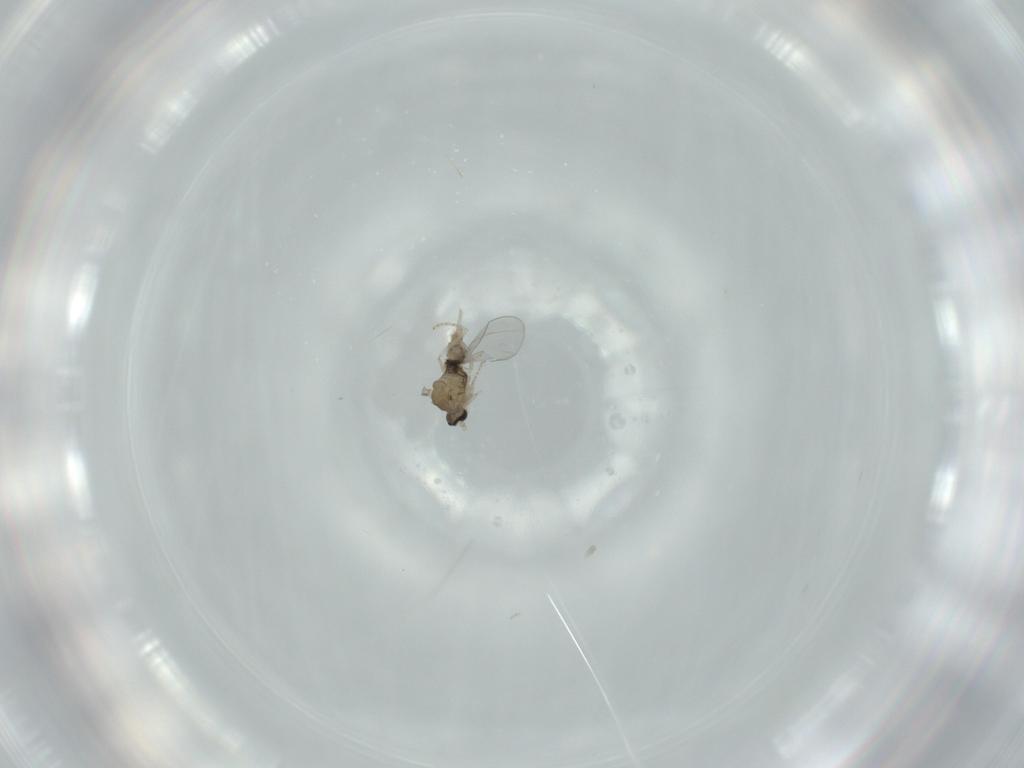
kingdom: Animalia
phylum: Arthropoda
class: Insecta
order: Diptera
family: Cecidomyiidae
